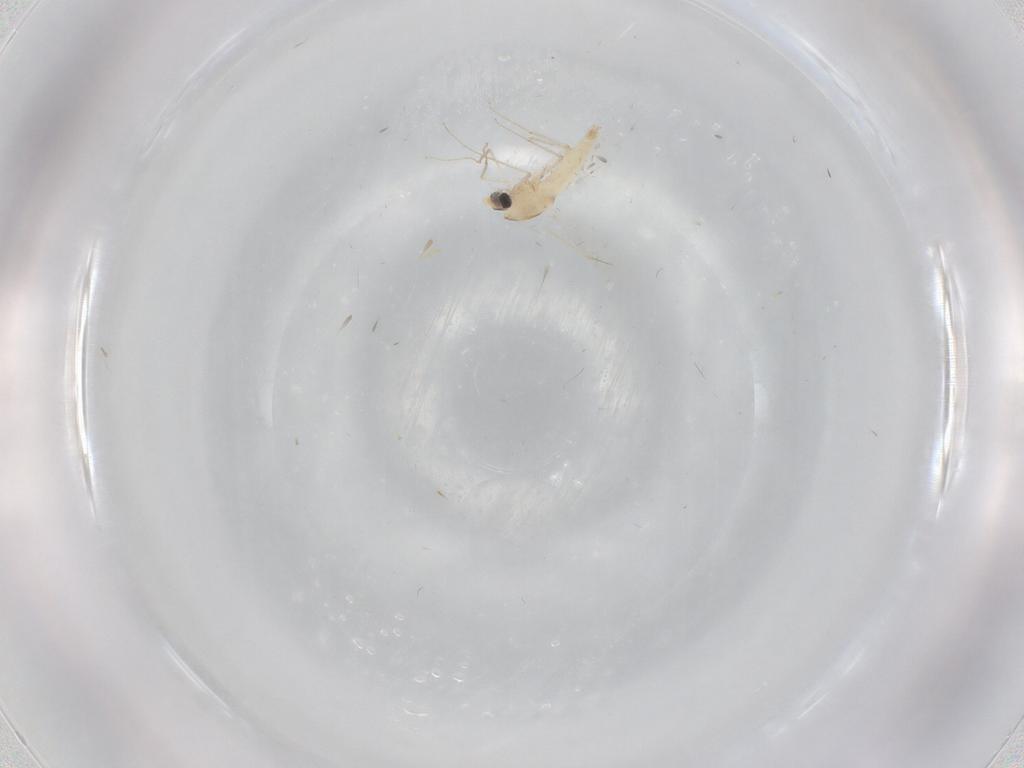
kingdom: Animalia
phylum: Arthropoda
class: Insecta
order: Diptera
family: Chironomidae
